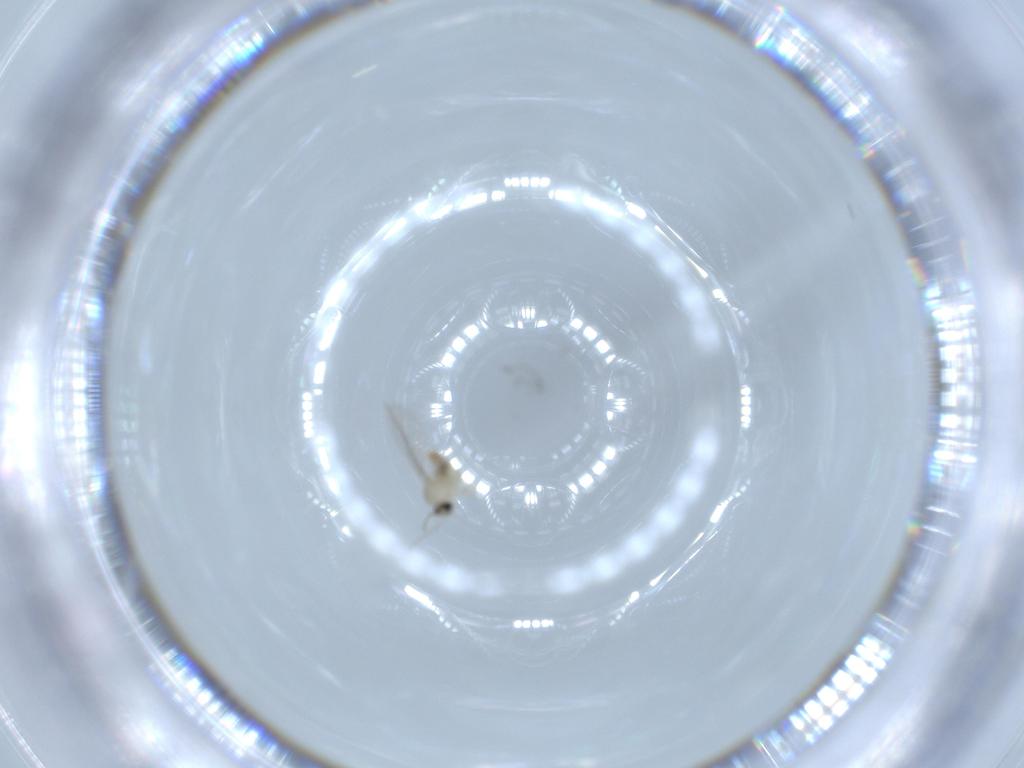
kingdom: Animalia
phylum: Arthropoda
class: Insecta
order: Diptera
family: Cecidomyiidae
